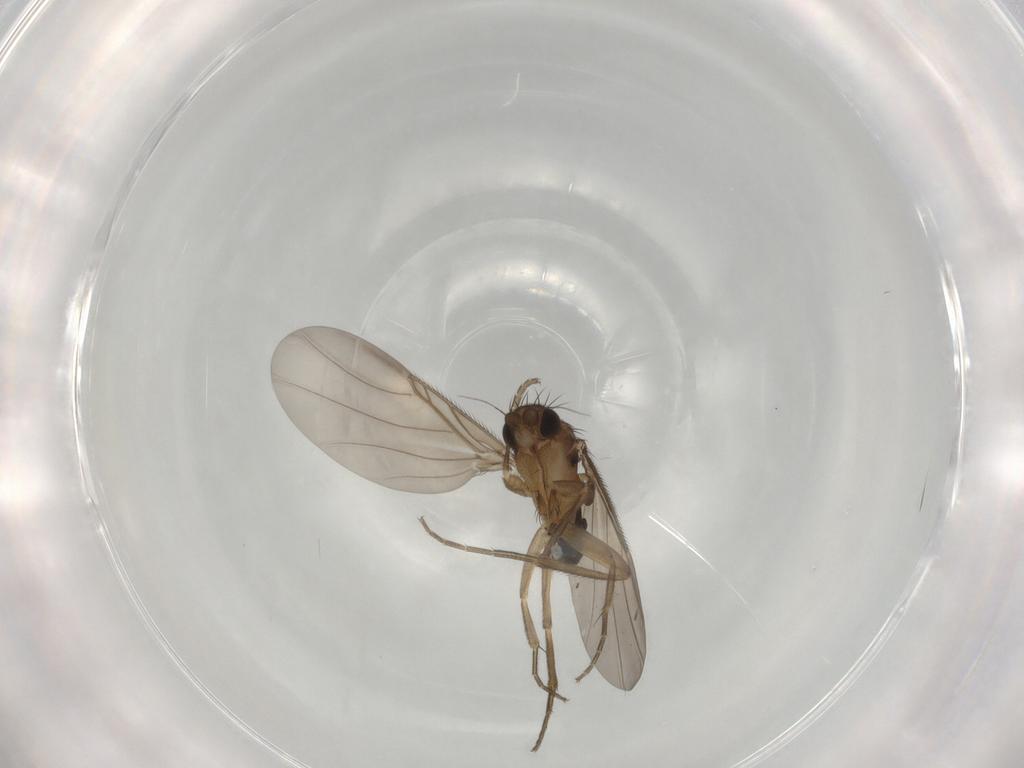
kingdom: Animalia
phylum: Arthropoda
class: Insecta
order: Diptera
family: Phoridae
